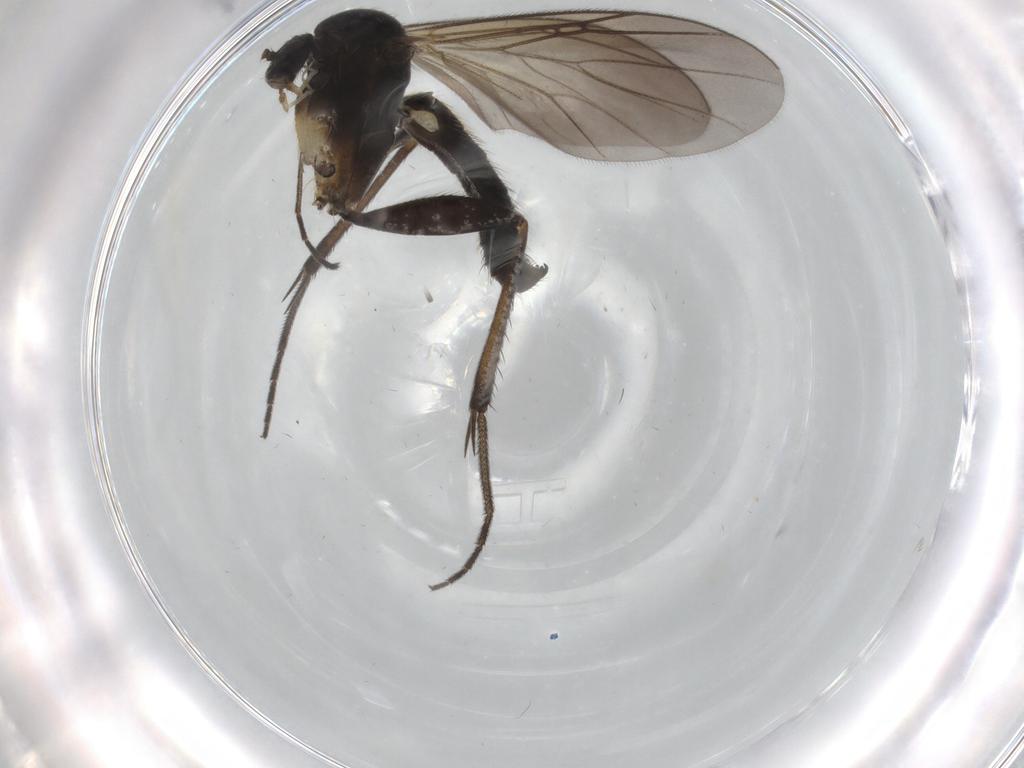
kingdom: Animalia
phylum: Arthropoda
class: Insecta
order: Diptera
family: Mycetophilidae
